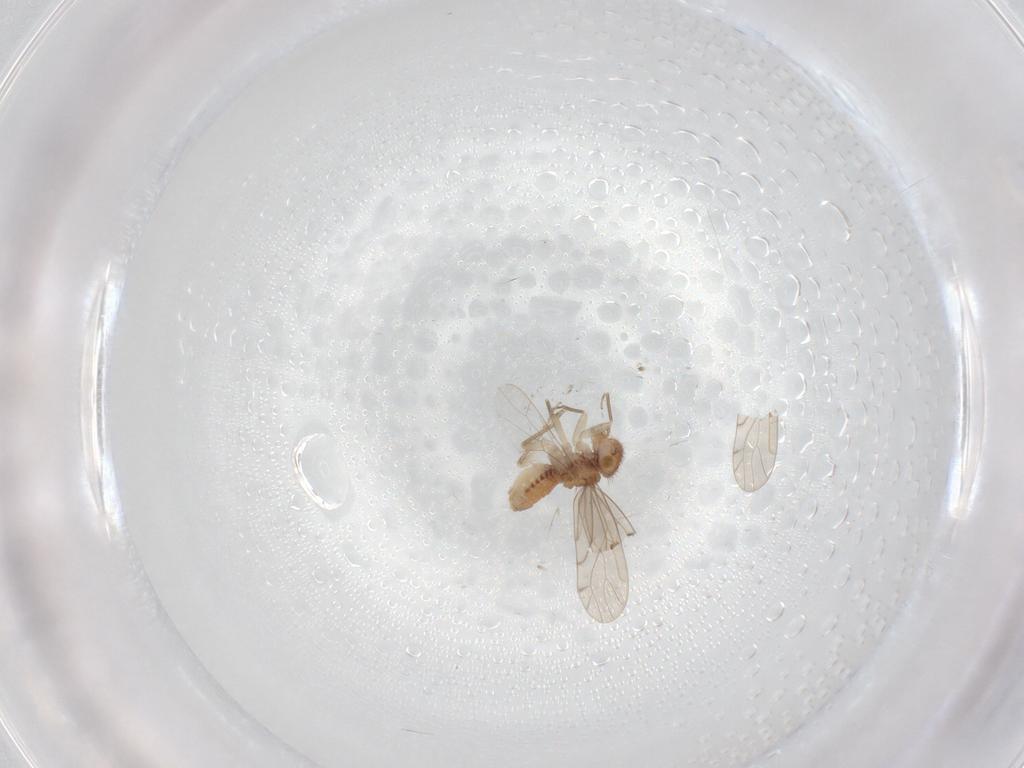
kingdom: Animalia
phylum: Arthropoda
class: Insecta
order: Psocodea
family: Ectopsocidae
